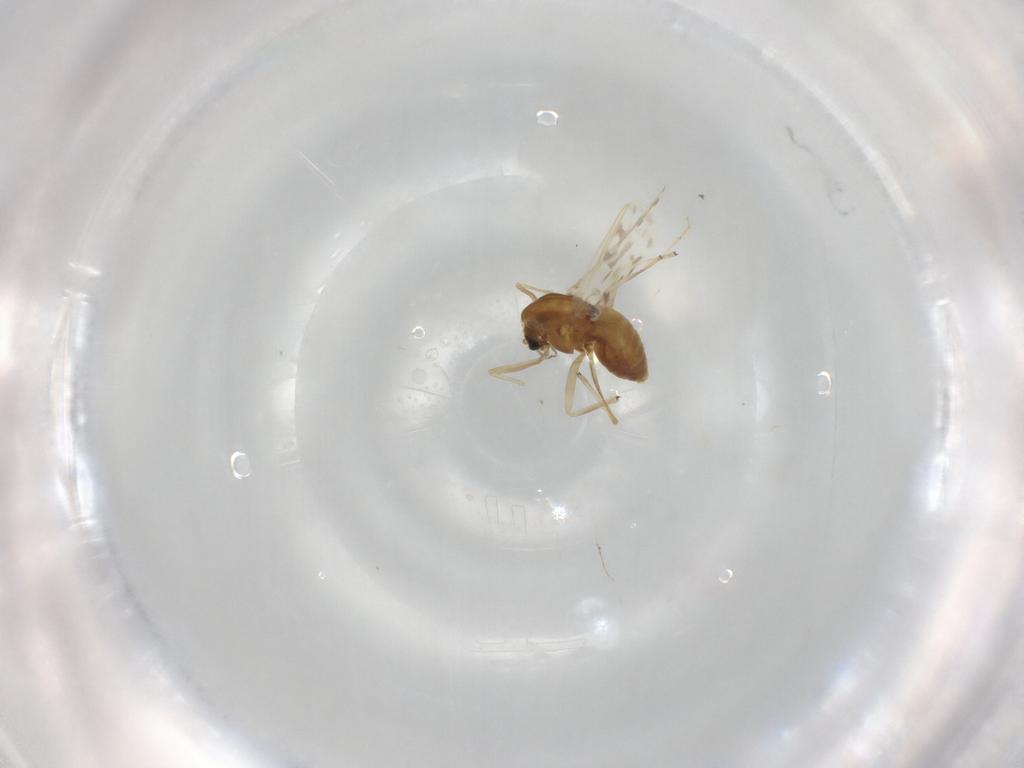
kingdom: Animalia
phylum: Arthropoda
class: Insecta
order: Diptera
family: Chironomidae
